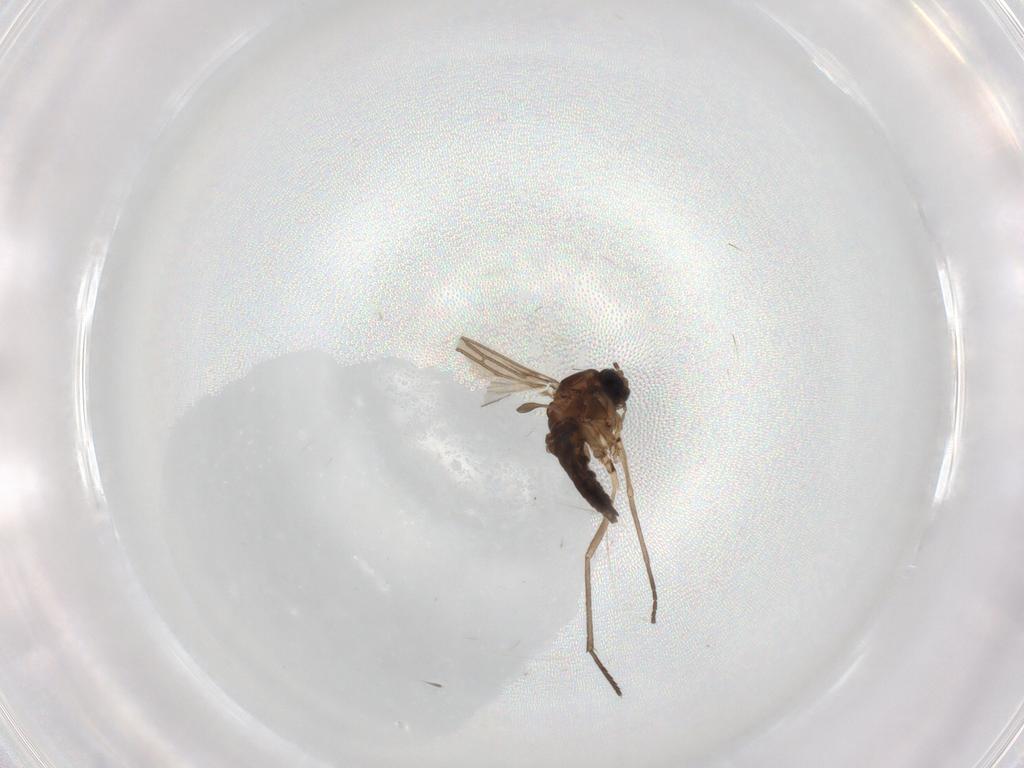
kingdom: Animalia
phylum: Arthropoda
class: Insecta
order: Diptera
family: Sciaridae
